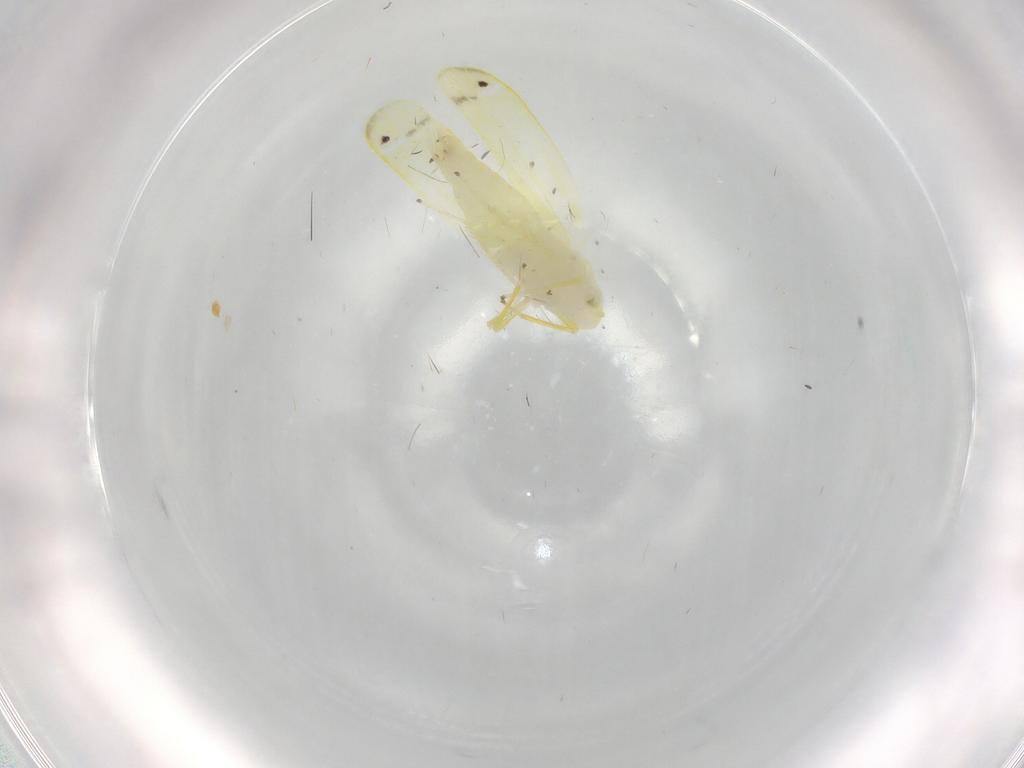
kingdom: Animalia
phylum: Arthropoda
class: Insecta
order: Hemiptera
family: Cicadellidae
